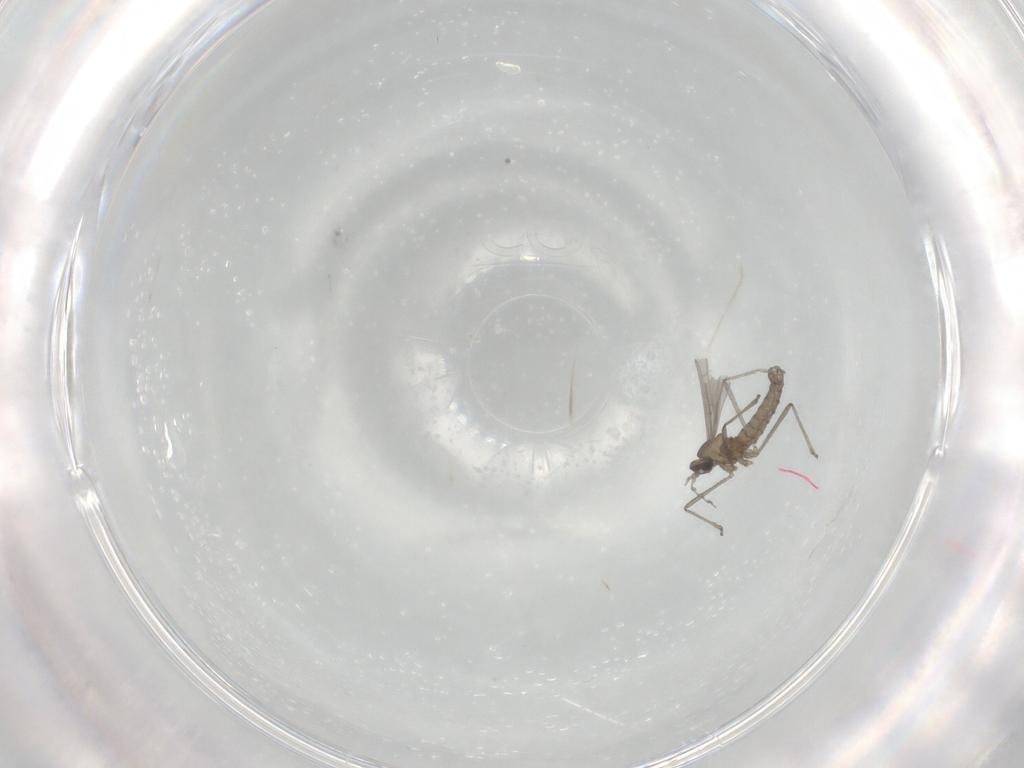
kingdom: Animalia
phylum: Arthropoda
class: Insecta
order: Diptera
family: Cecidomyiidae
